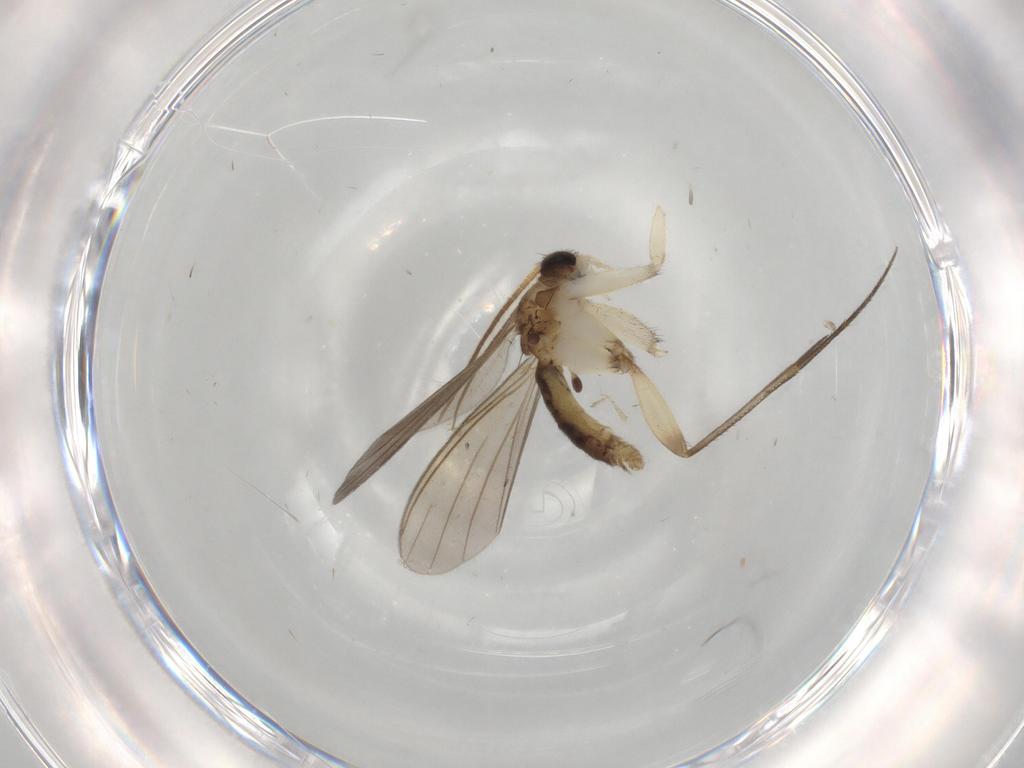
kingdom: Animalia
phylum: Arthropoda
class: Insecta
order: Diptera
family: Mycetophilidae
